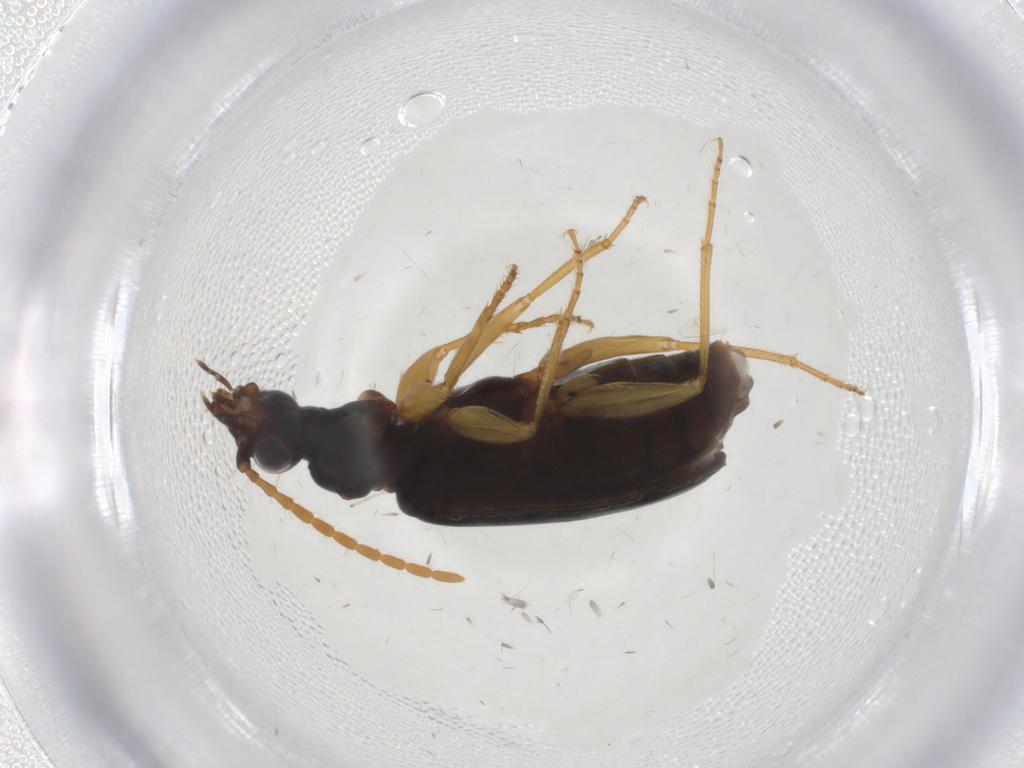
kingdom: Animalia
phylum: Arthropoda
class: Insecta
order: Coleoptera
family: Carabidae
